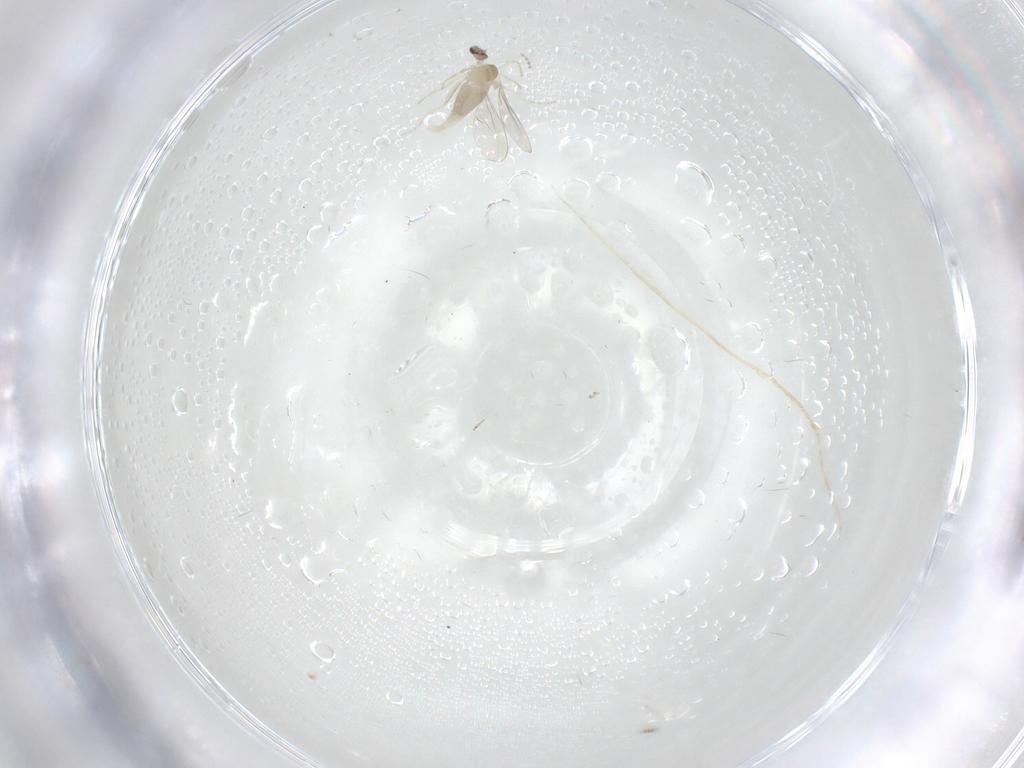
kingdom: Animalia
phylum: Arthropoda
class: Insecta
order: Diptera
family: Cecidomyiidae
